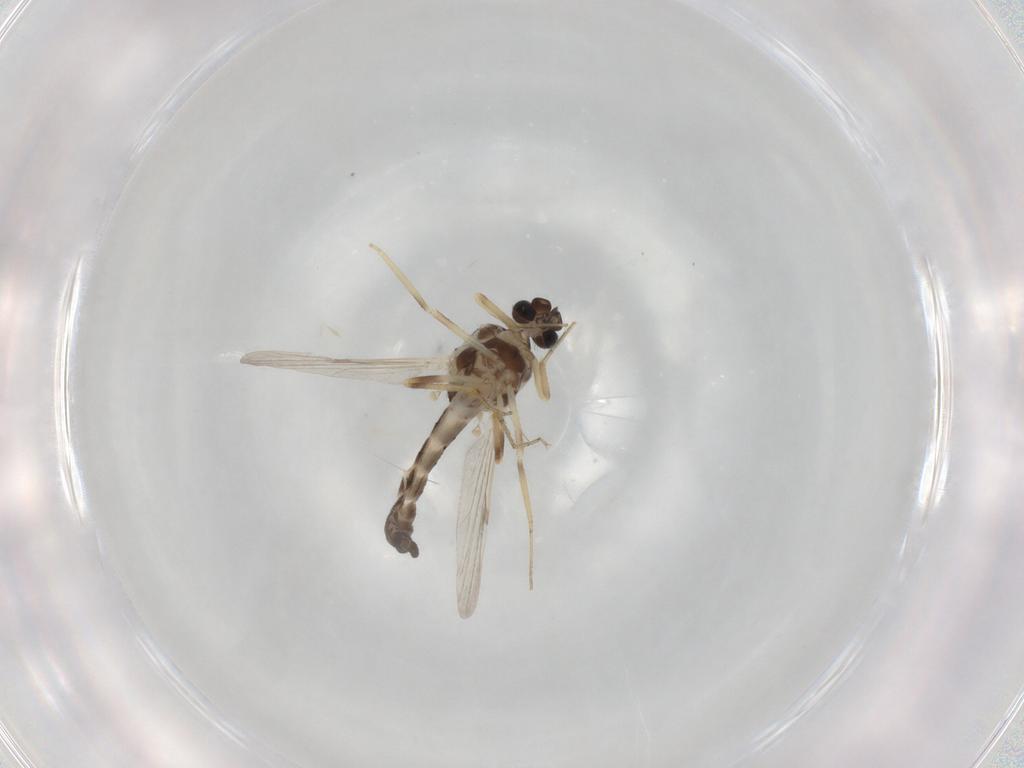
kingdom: Animalia
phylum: Arthropoda
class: Insecta
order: Diptera
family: Ceratopogonidae
